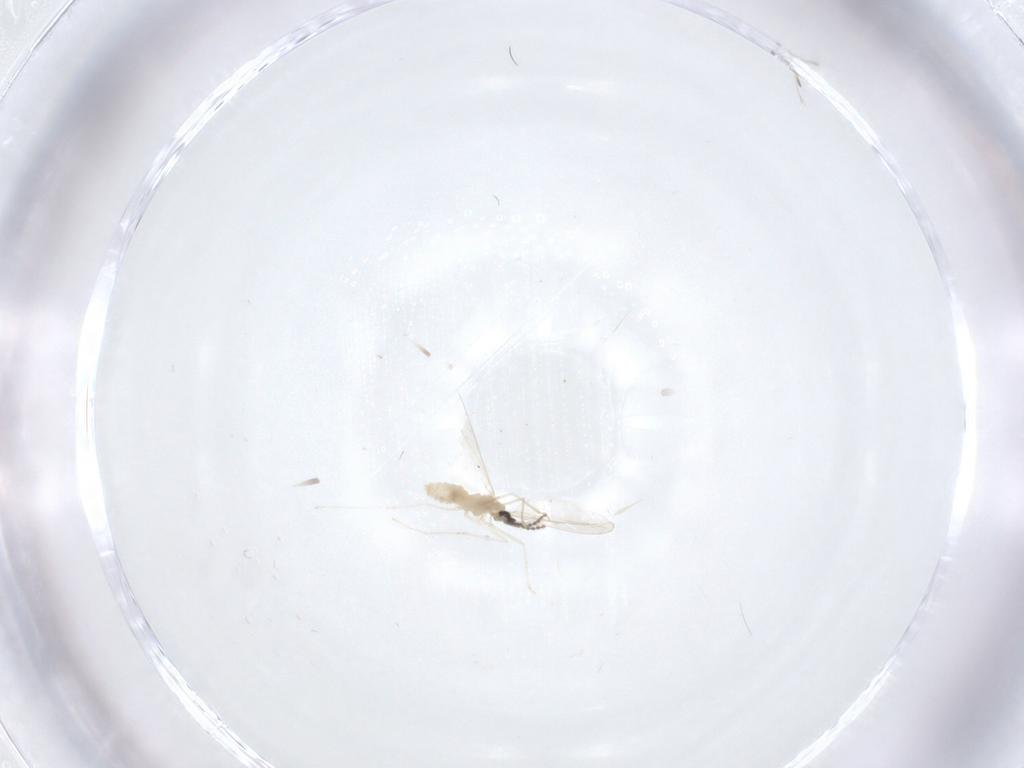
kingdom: Animalia
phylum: Arthropoda
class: Insecta
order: Diptera
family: Cecidomyiidae
